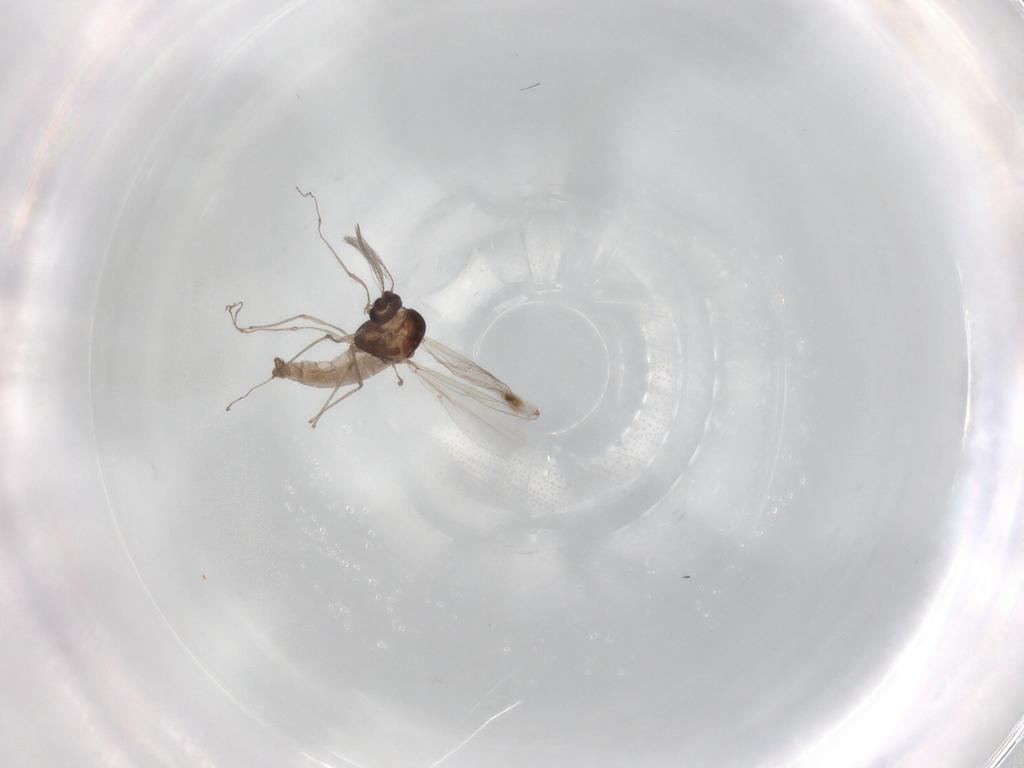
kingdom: Animalia
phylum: Arthropoda
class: Insecta
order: Diptera
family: Chironomidae
